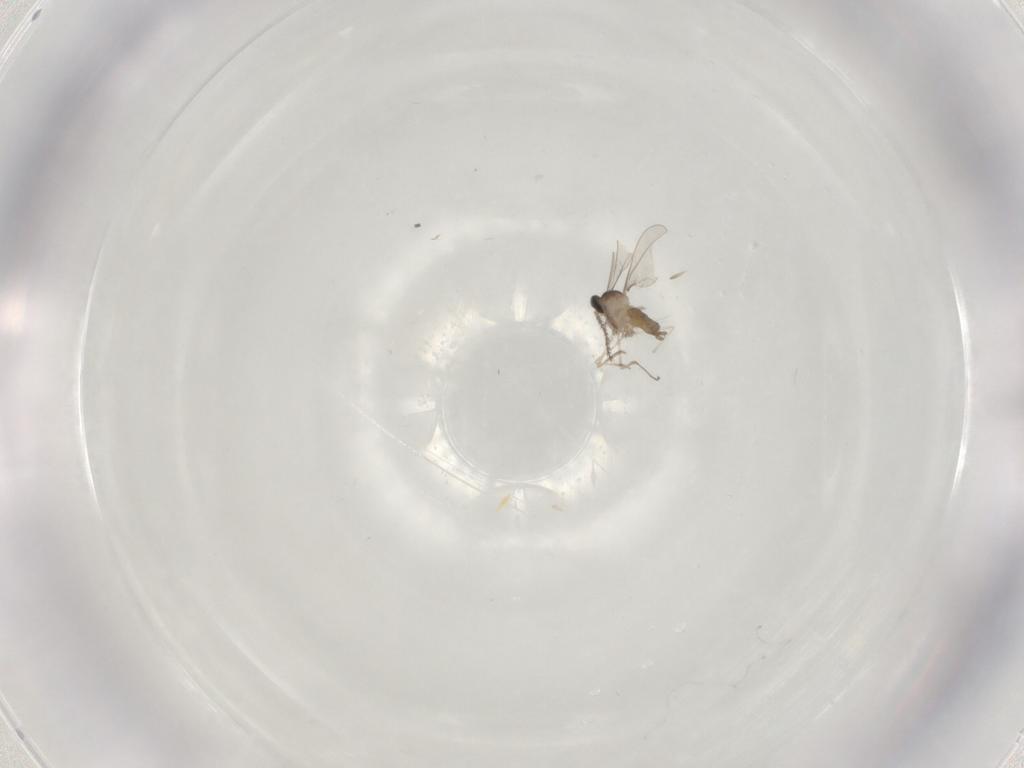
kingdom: Animalia
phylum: Arthropoda
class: Insecta
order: Diptera
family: Cecidomyiidae
